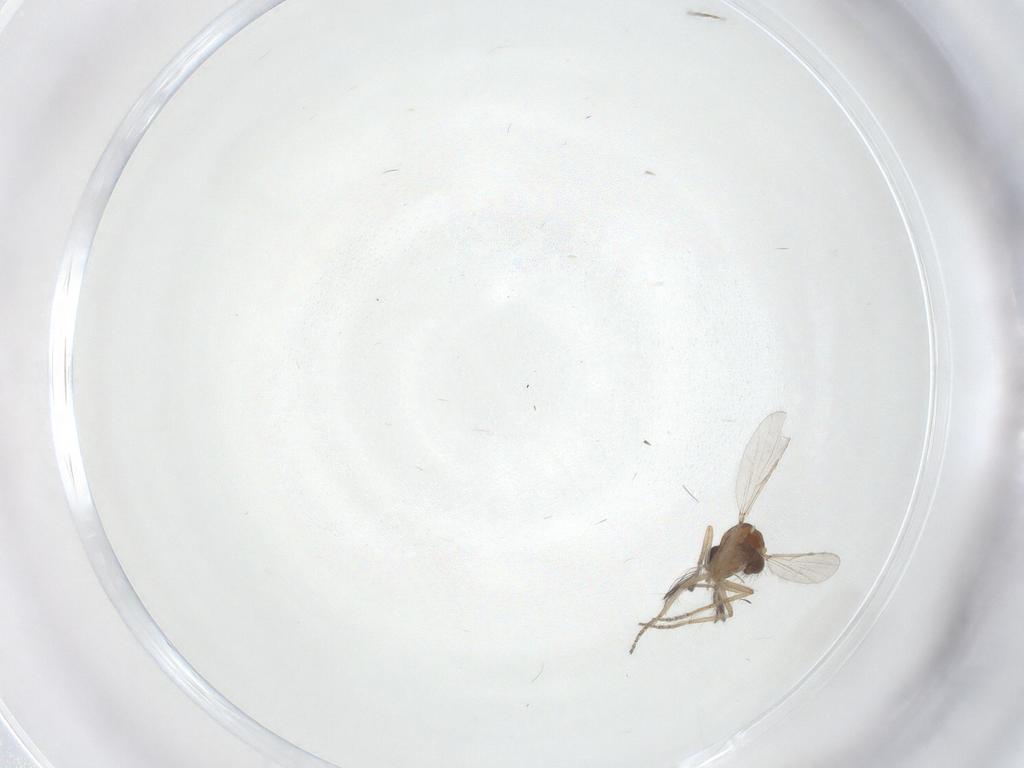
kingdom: Animalia
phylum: Arthropoda
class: Insecta
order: Diptera
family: Ceratopogonidae
